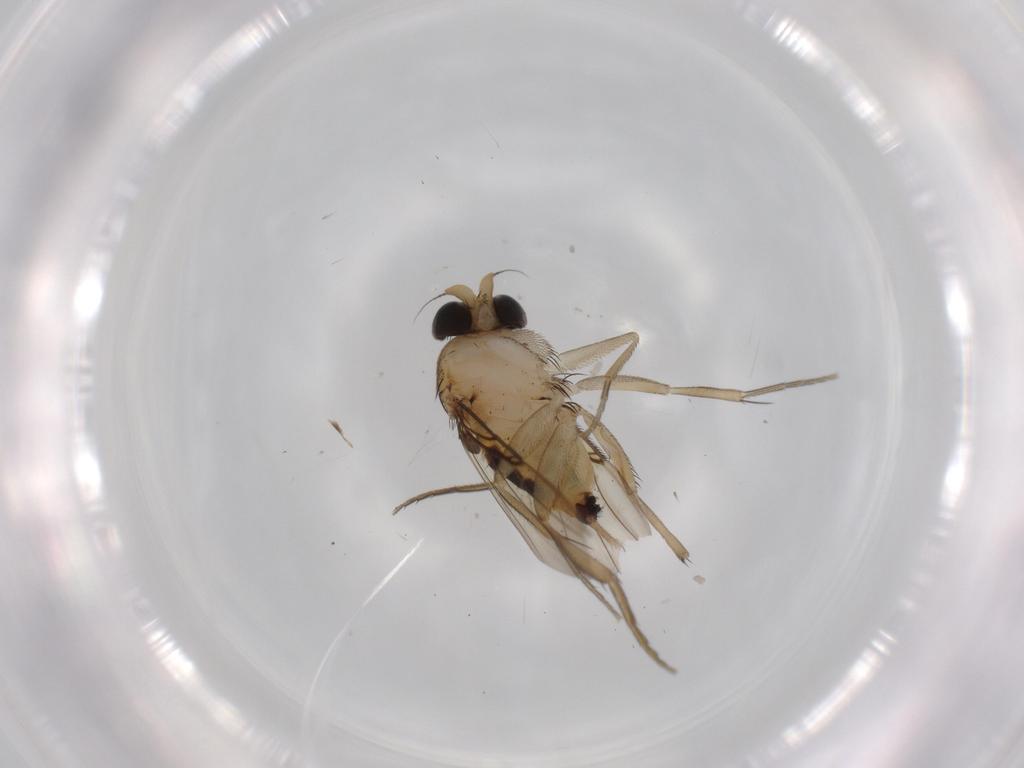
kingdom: Animalia
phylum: Arthropoda
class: Insecta
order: Diptera
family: Phoridae
